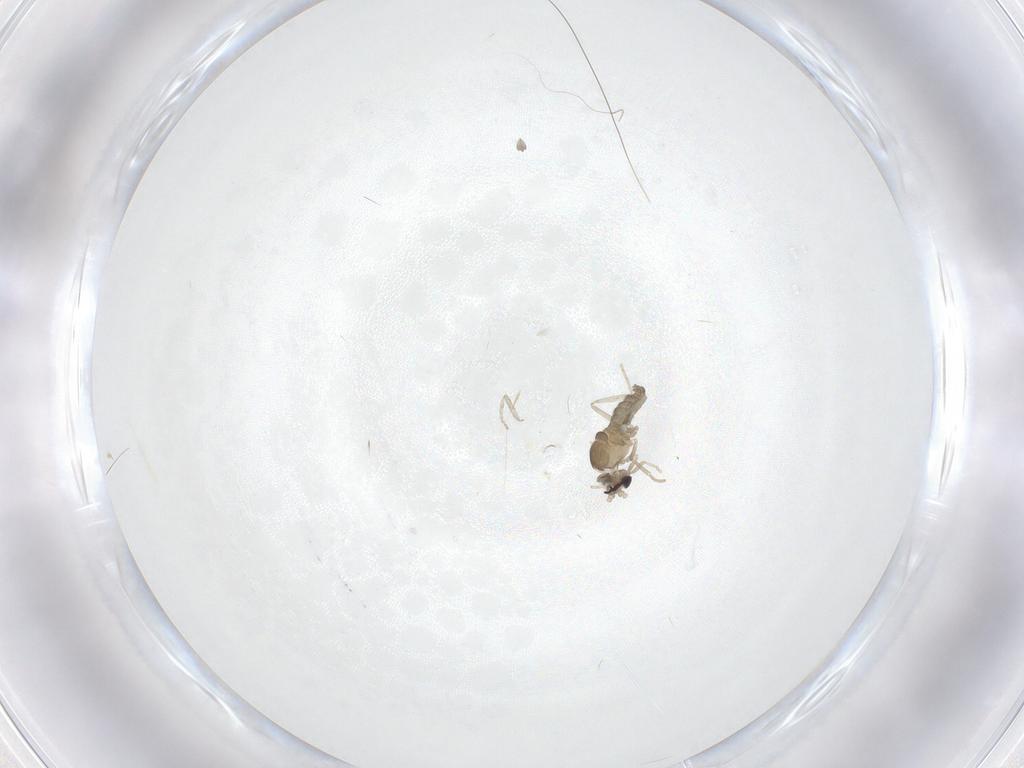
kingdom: Animalia
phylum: Arthropoda
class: Insecta
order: Diptera
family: Cecidomyiidae
